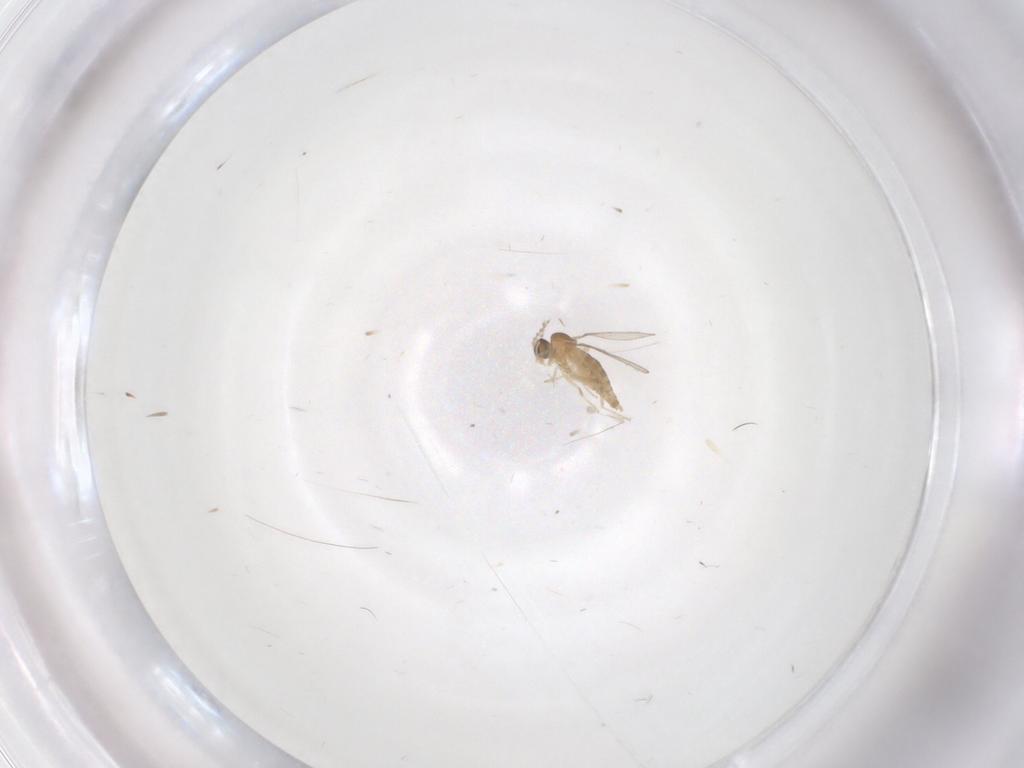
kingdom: Animalia
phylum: Arthropoda
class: Insecta
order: Diptera
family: Cecidomyiidae
